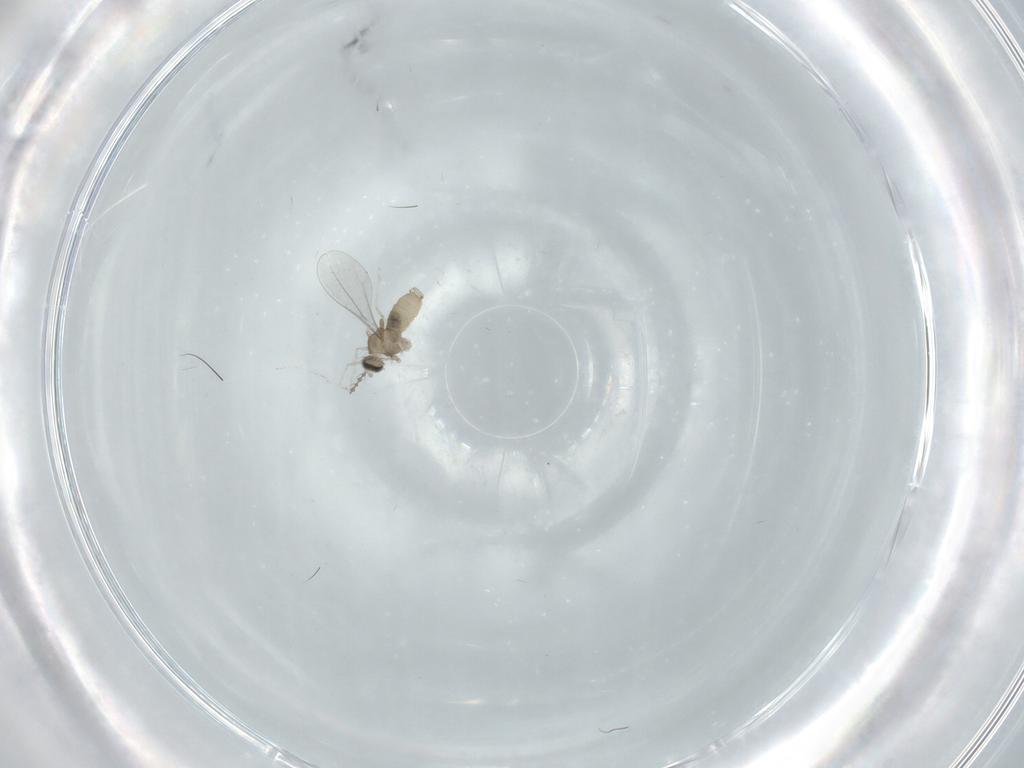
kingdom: Animalia
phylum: Arthropoda
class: Insecta
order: Diptera
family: Cecidomyiidae
